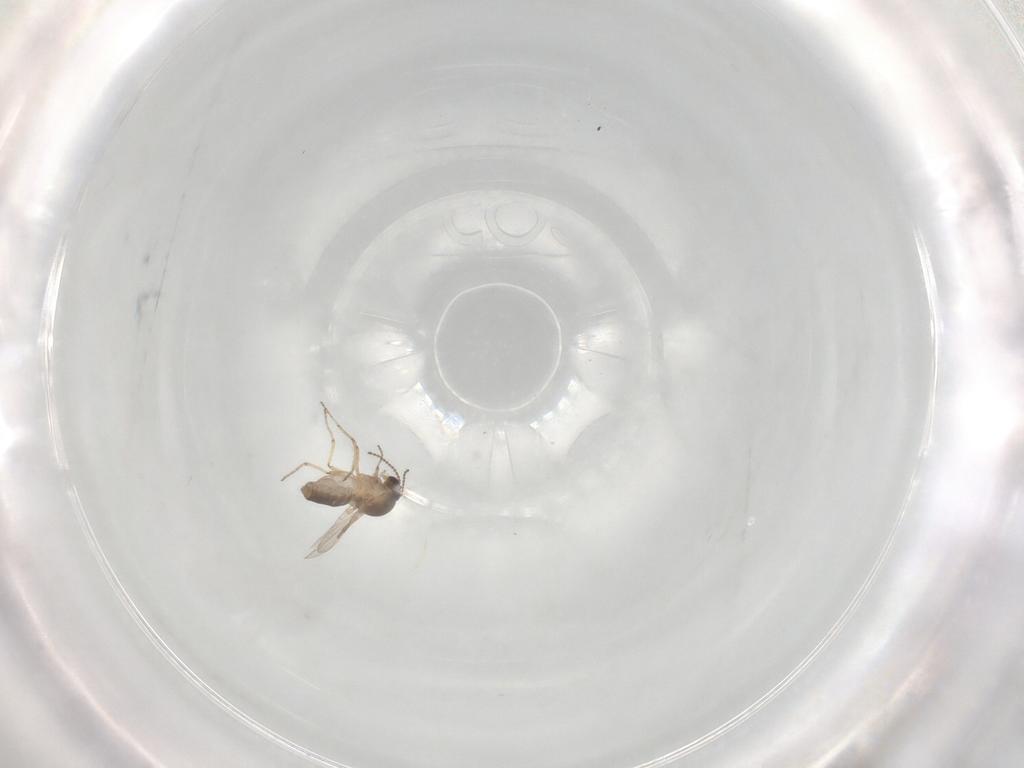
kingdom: Animalia
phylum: Arthropoda
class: Insecta
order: Diptera
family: Ceratopogonidae
